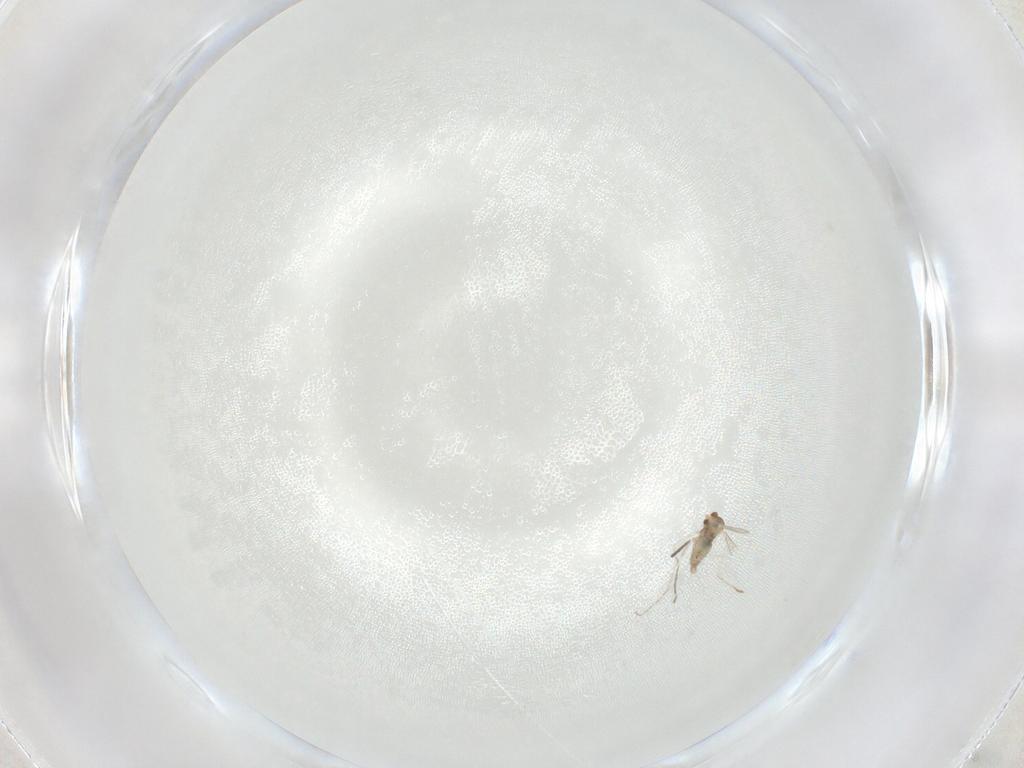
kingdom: Animalia
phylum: Arthropoda
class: Insecta
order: Diptera
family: Cecidomyiidae
